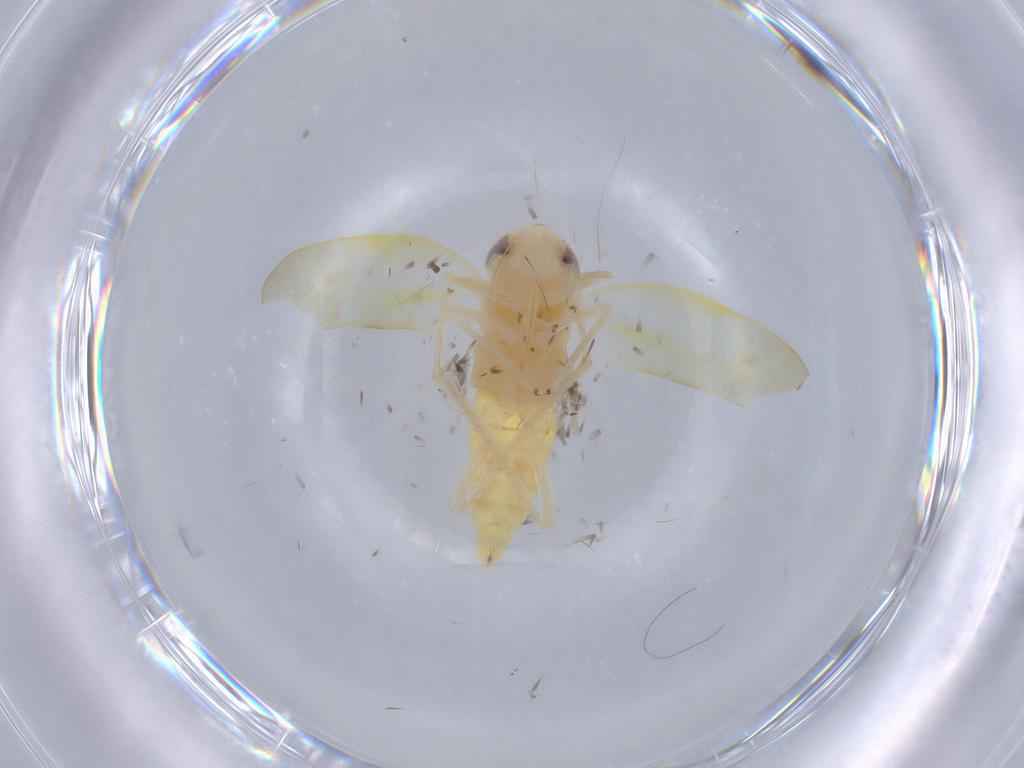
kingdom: Animalia
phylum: Arthropoda
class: Insecta
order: Hemiptera
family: Cicadellidae
